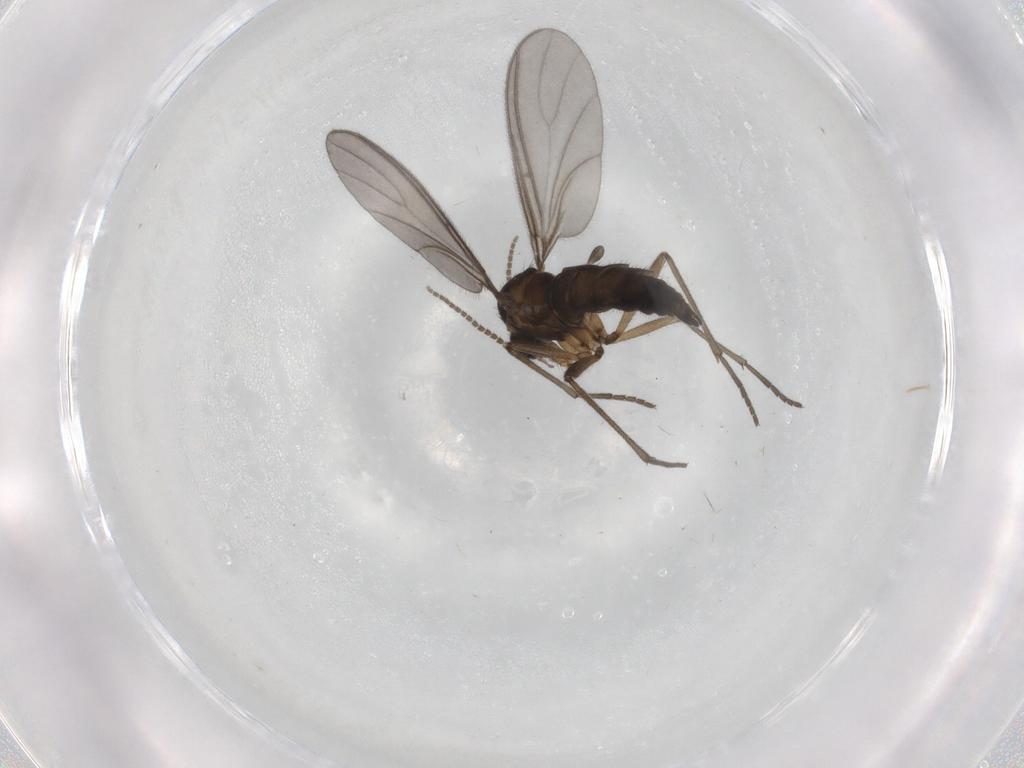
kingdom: Animalia
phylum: Arthropoda
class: Insecta
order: Diptera
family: Sciaridae
